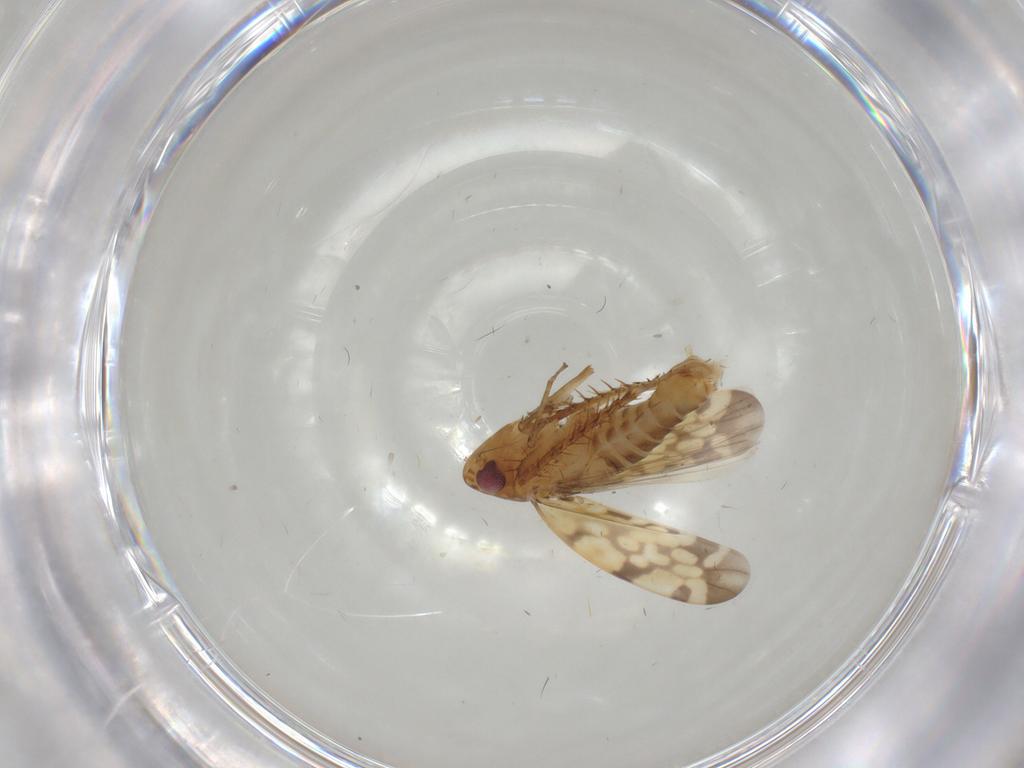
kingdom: Animalia
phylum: Arthropoda
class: Insecta
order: Hemiptera
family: Cicadellidae
